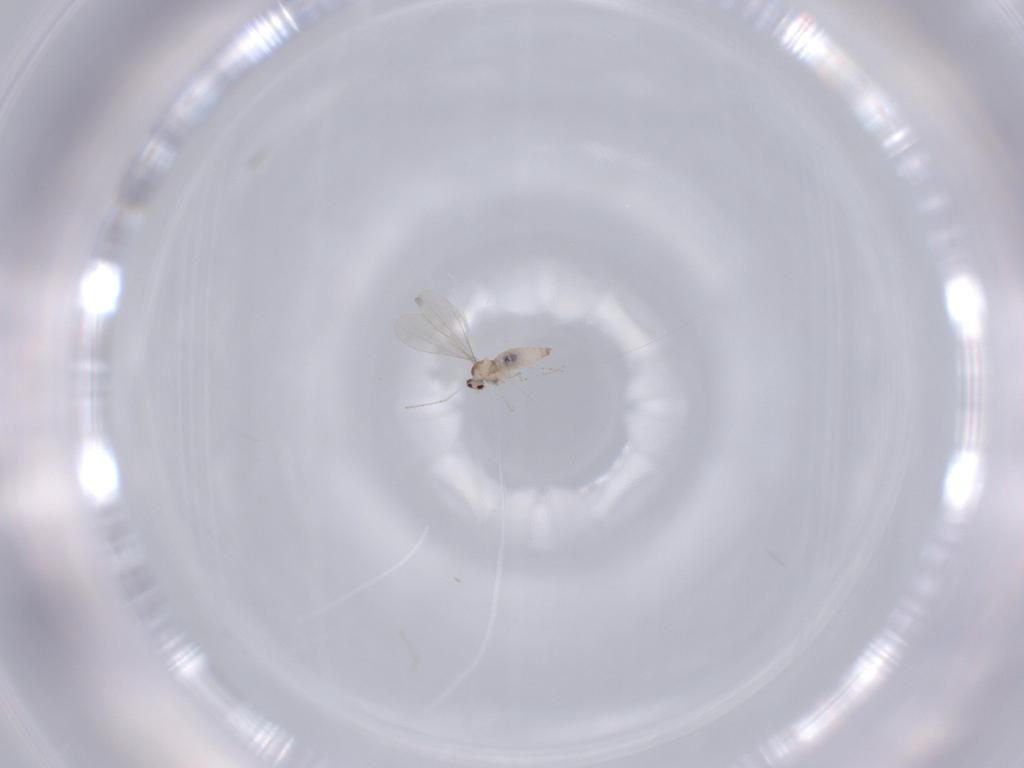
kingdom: Animalia
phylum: Arthropoda
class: Insecta
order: Diptera
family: Cecidomyiidae
